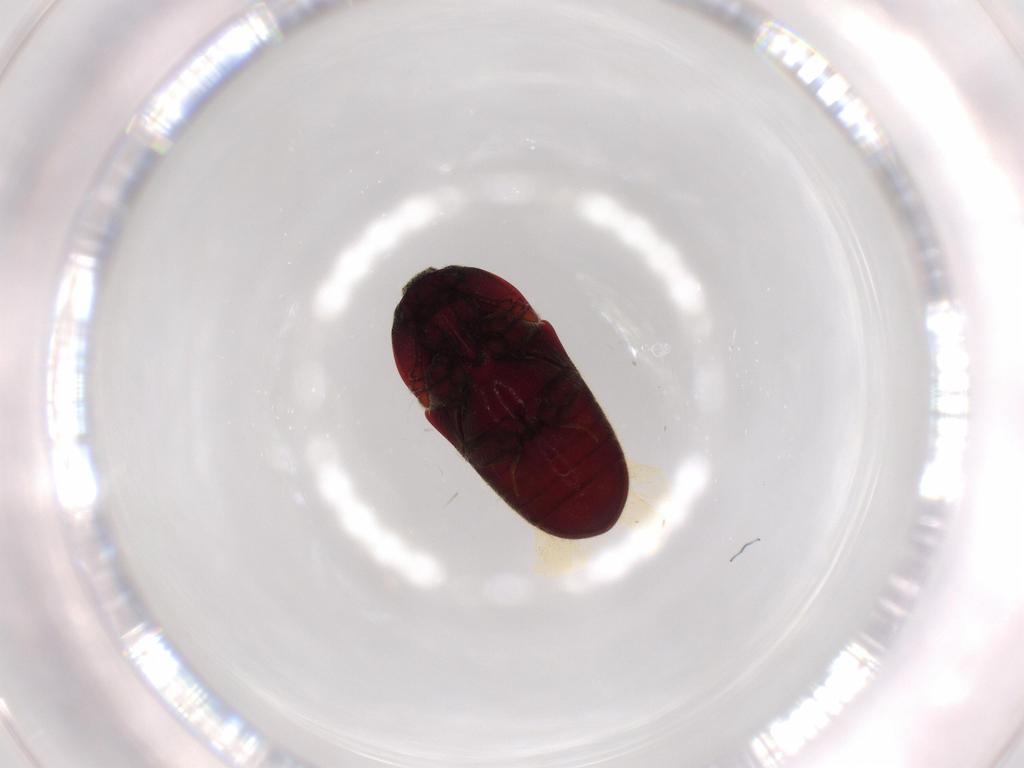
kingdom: Animalia
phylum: Arthropoda
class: Insecta
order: Coleoptera
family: Throscidae
